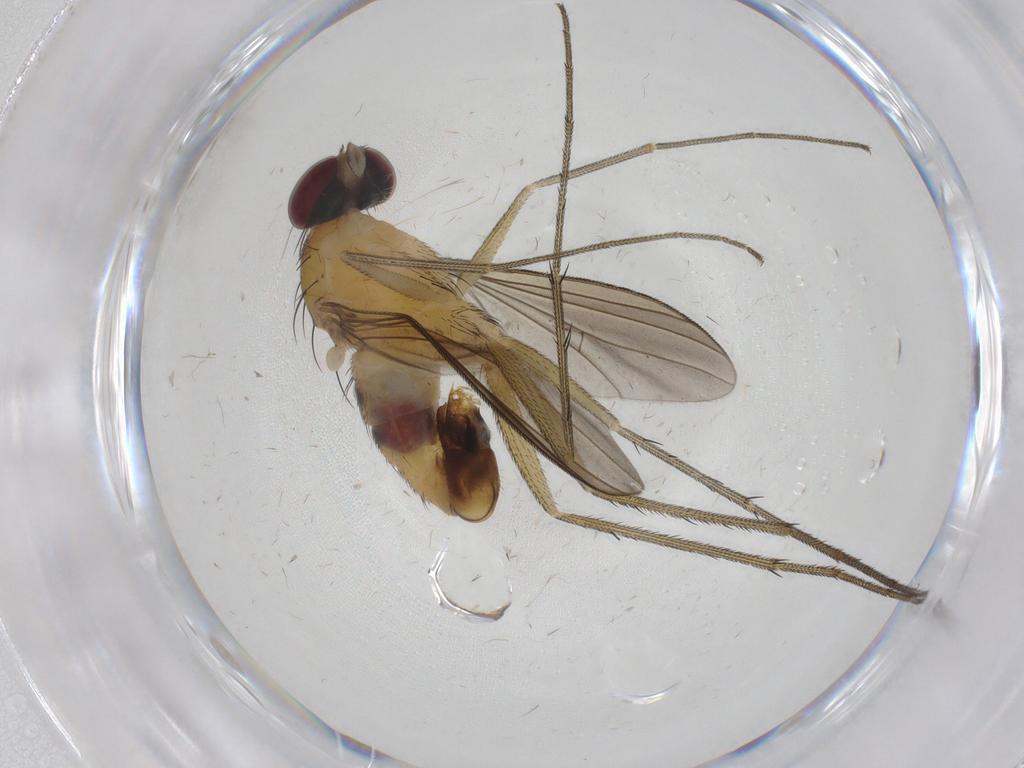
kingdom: Animalia
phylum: Arthropoda
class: Insecta
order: Diptera
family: Dolichopodidae
